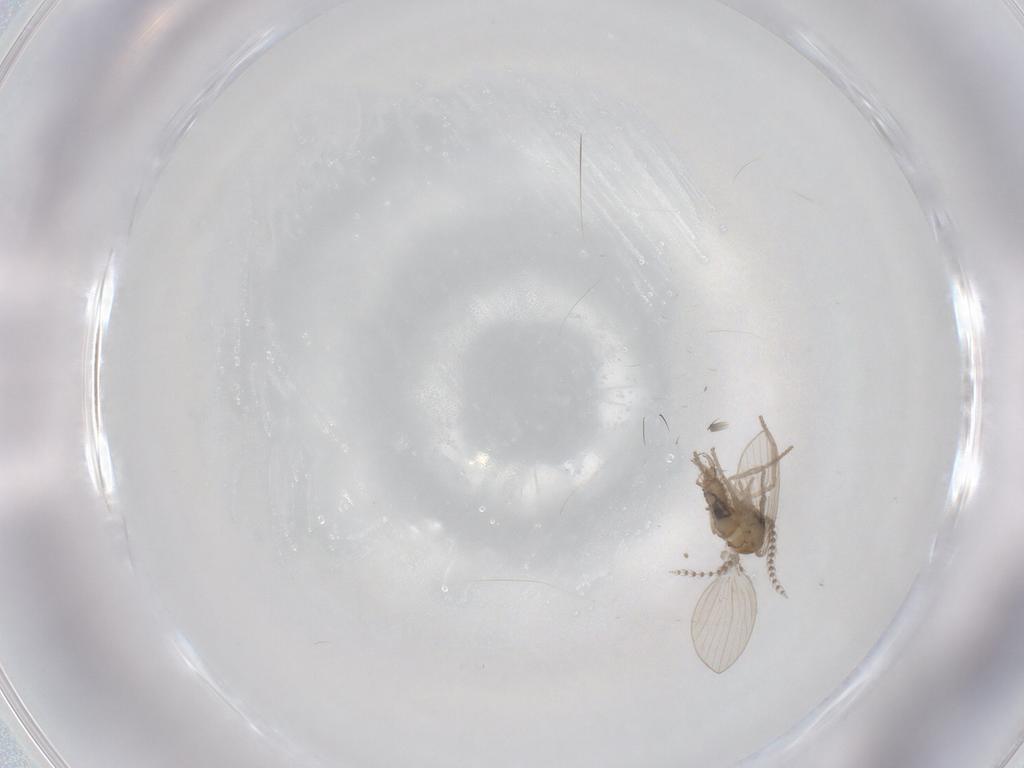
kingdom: Animalia
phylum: Arthropoda
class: Insecta
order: Diptera
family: Psychodidae
